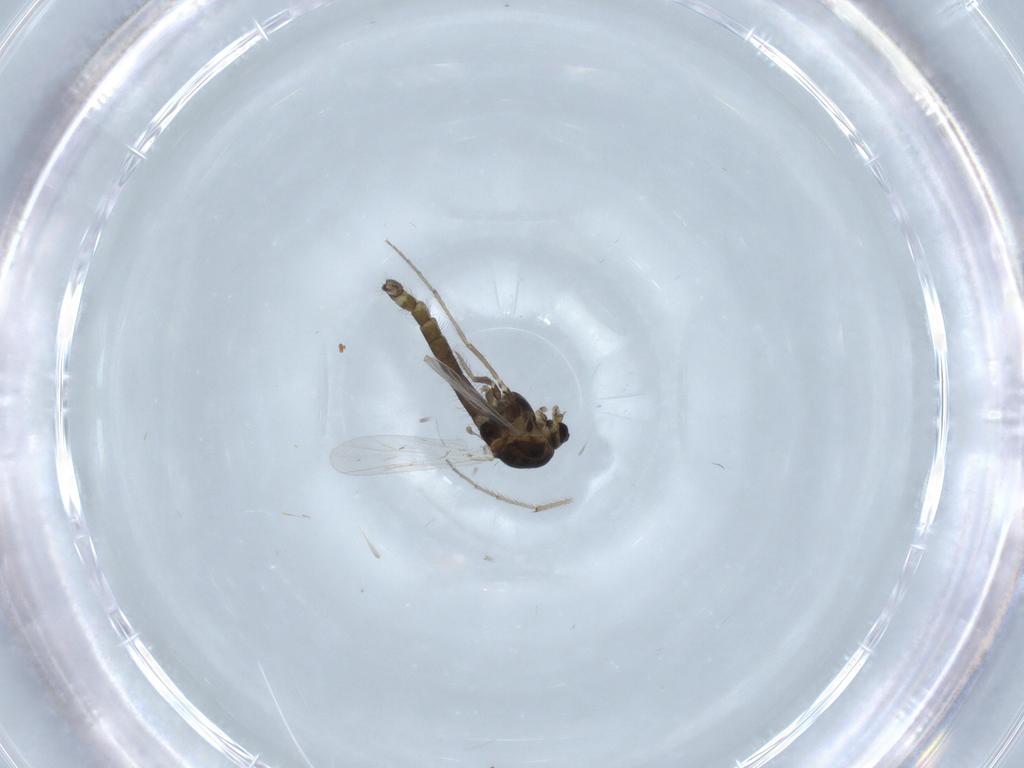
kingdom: Animalia
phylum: Arthropoda
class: Insecta
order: Diptera
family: Chironomidae
